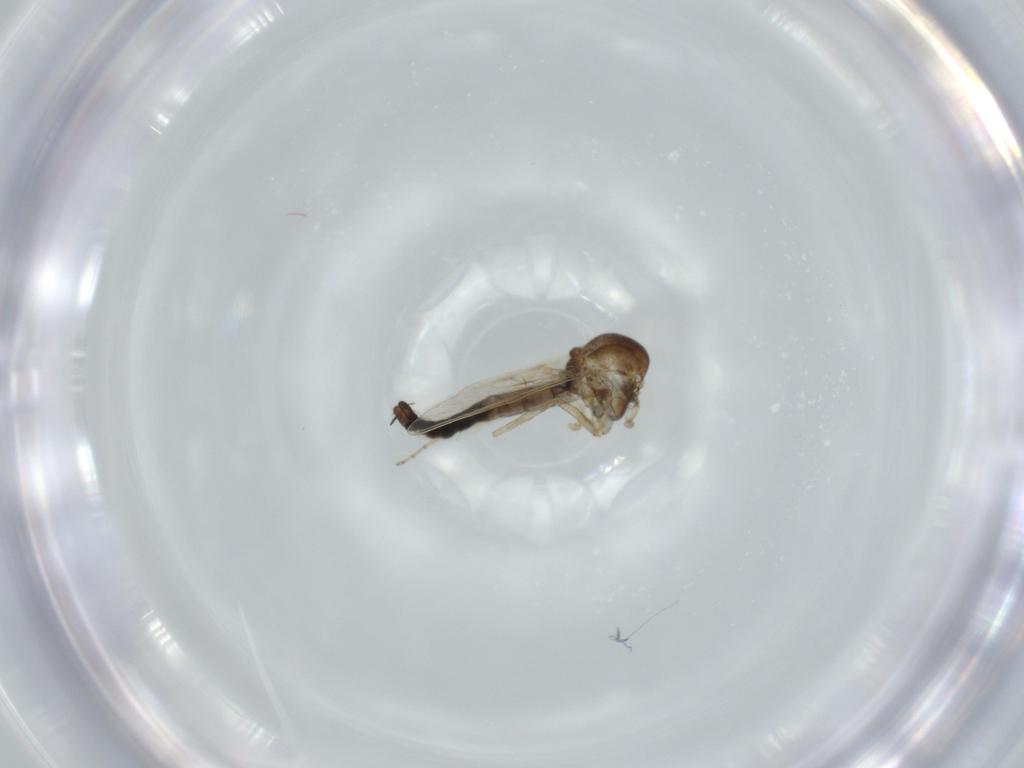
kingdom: Animalia
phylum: Arthropoda
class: Insecta
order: Diptera
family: Ceratopogonidae
